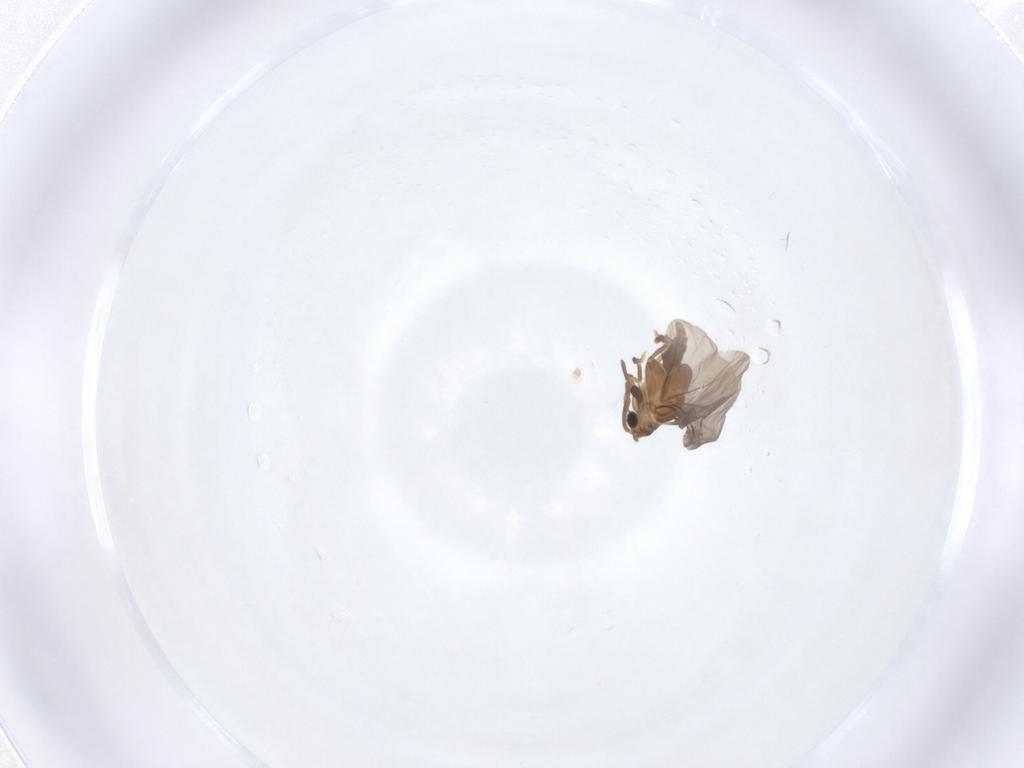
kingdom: Animalia
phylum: Arthropoda
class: Insecta
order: Strepsiptera
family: Myrmecolacidae
